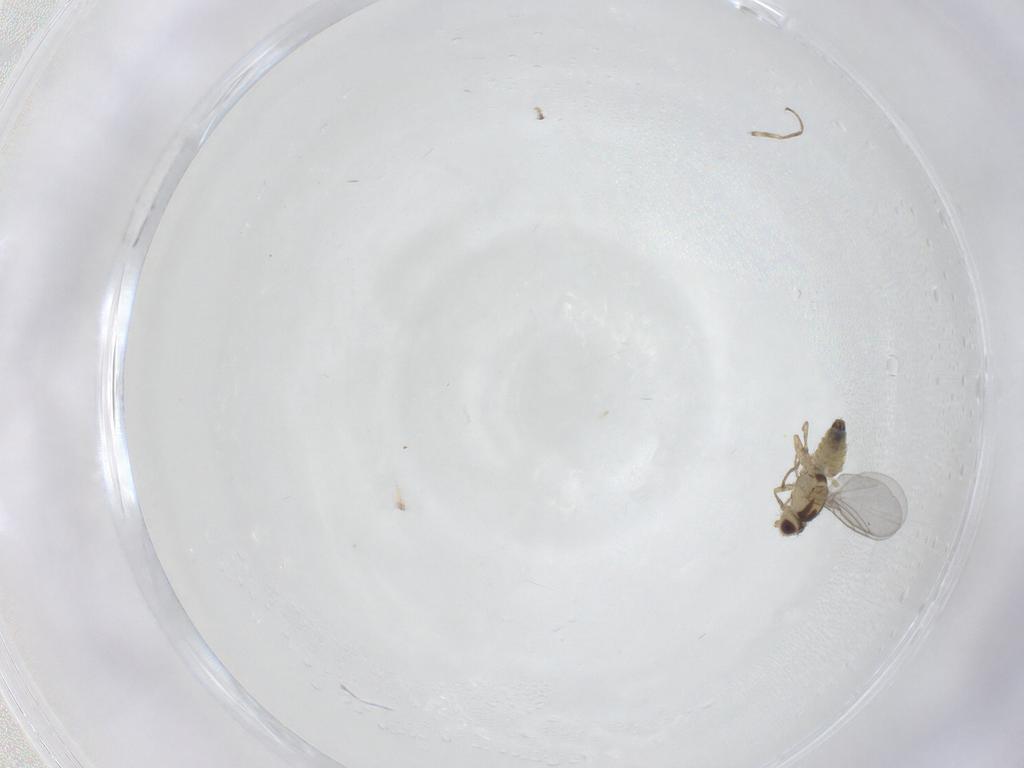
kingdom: Animalia
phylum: Arthropoda
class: Insecta
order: Diptera
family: Sciaridae
